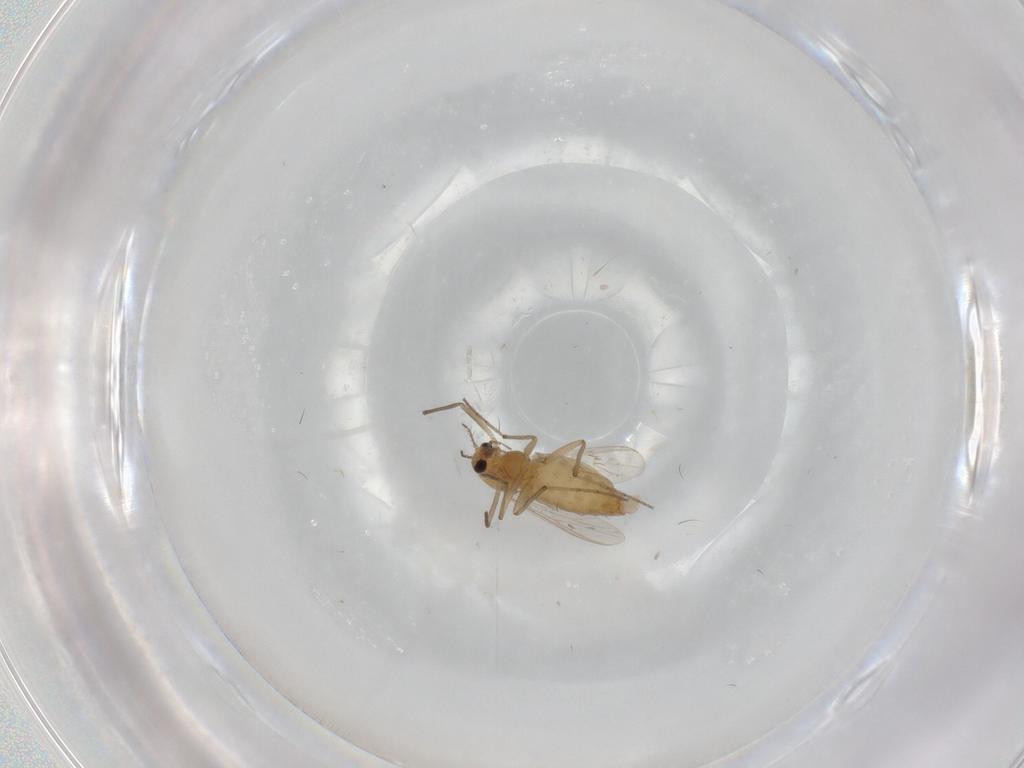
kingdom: Animalia
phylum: Arthropoda
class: Insecta
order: Diptera
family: Chironomidae
